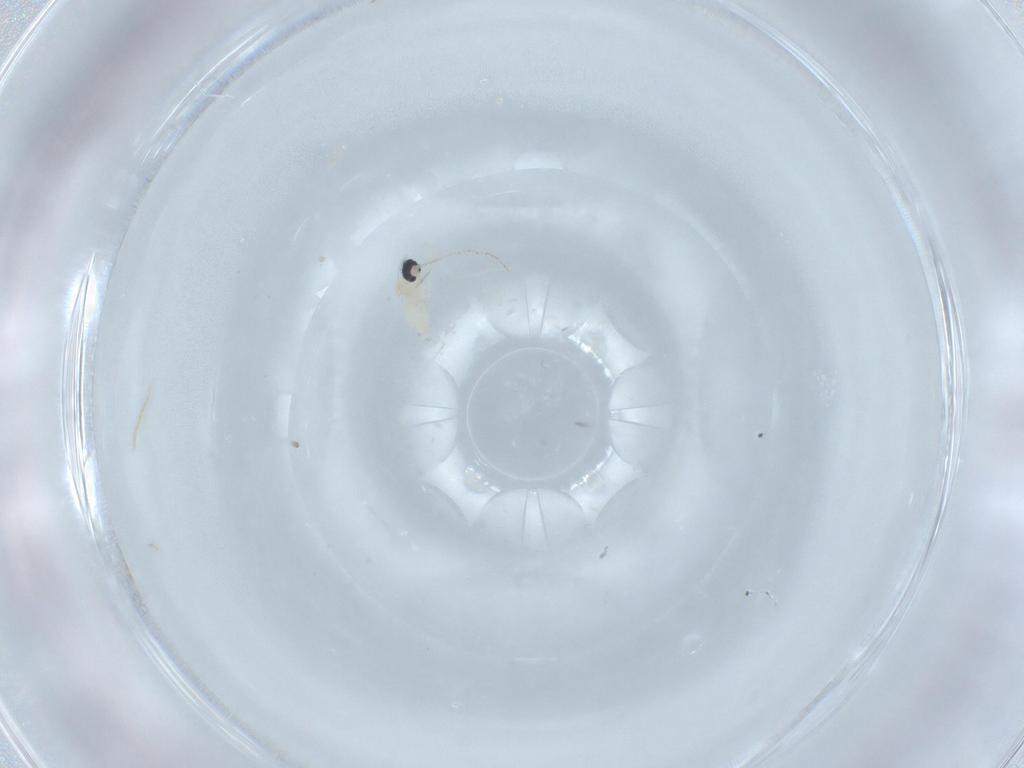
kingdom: Animalia
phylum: Arthropoda
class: Insecta
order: Diptera
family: Cecidomyiidae
